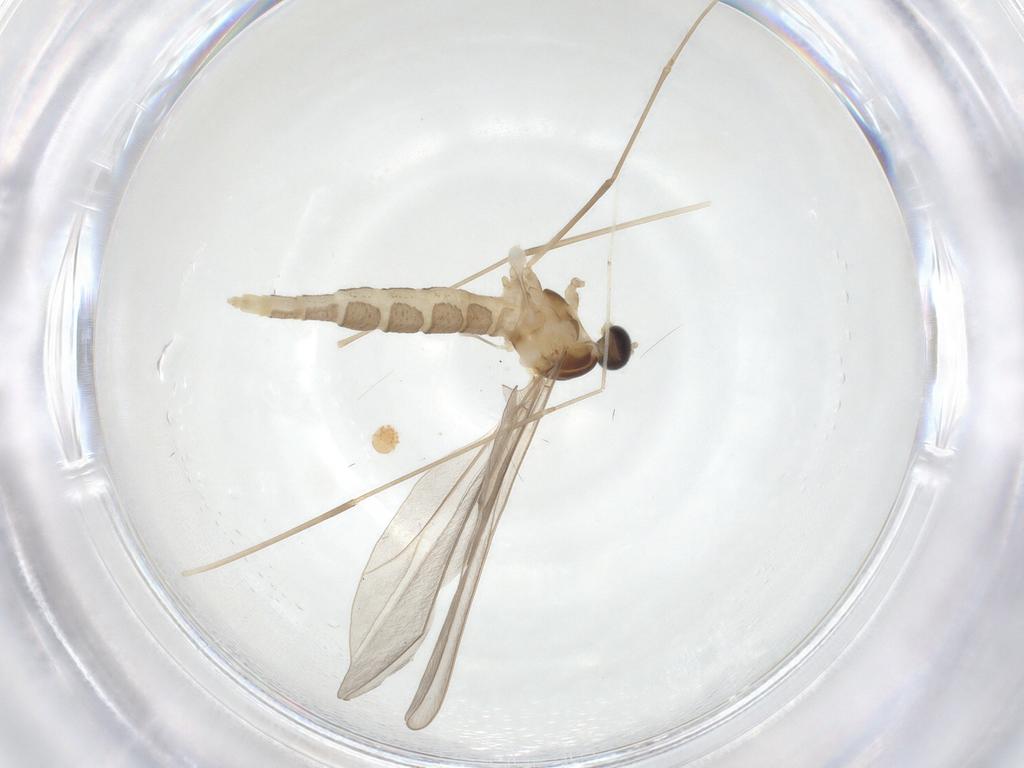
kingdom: Animalia
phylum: Arthropoda
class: Insecta
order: Diptera
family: Cecidomyiidae
